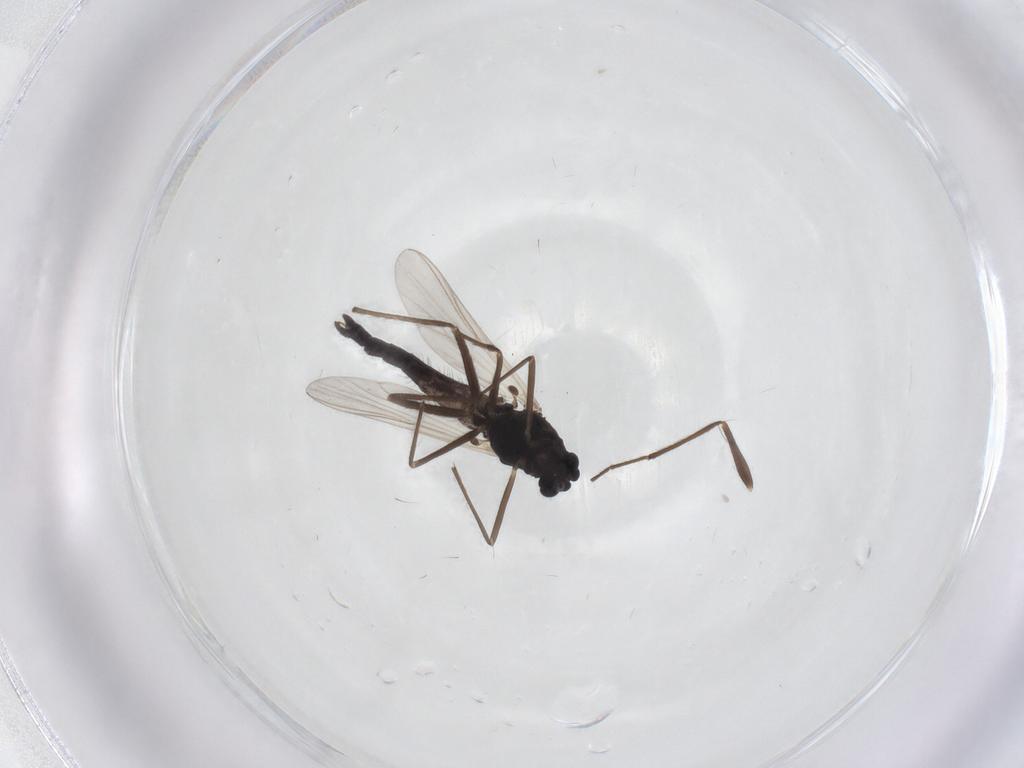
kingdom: Animalia
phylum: Arthropoda
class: Insecta
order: Diptera
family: Chironomidae
